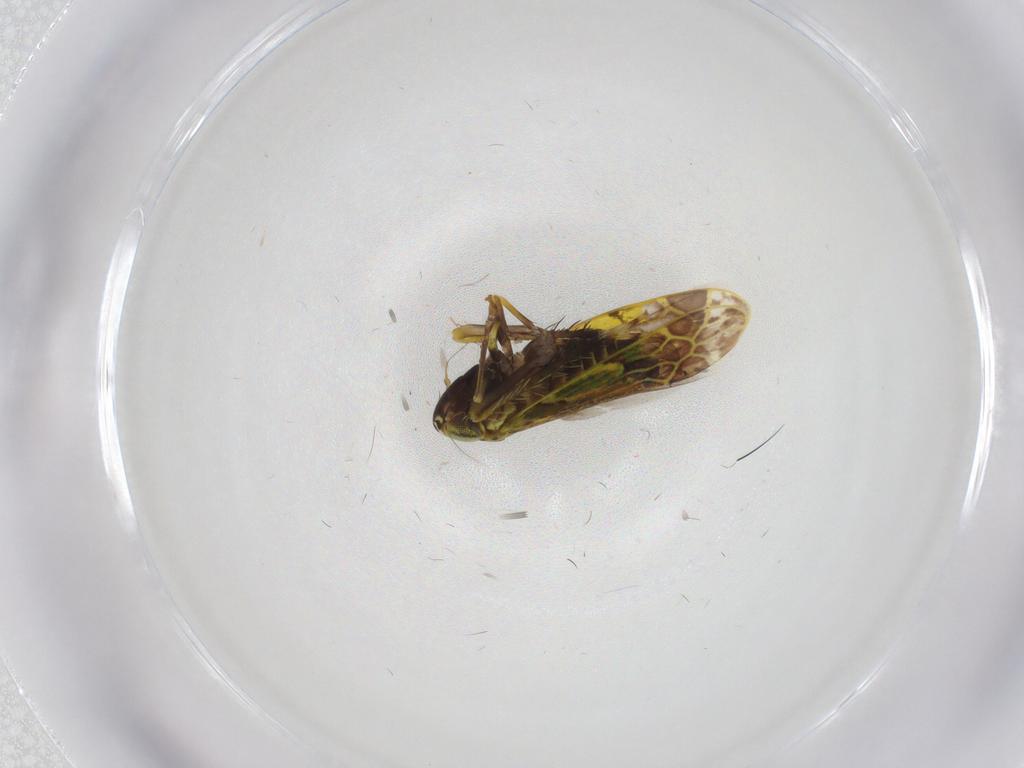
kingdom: Animalia
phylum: Arthropoda
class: Insecta
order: Hemiptera
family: Cicadellidae
